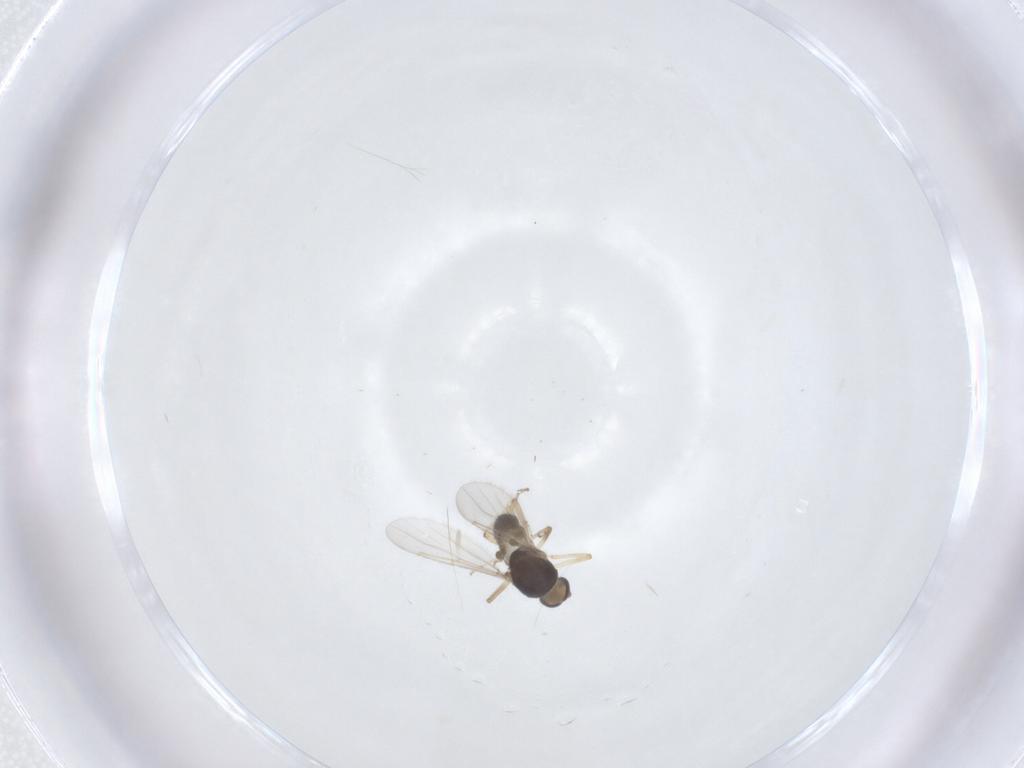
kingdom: Animalia
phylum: Arthropoda
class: Insecta
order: Diptera
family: Ceratopogonidae
